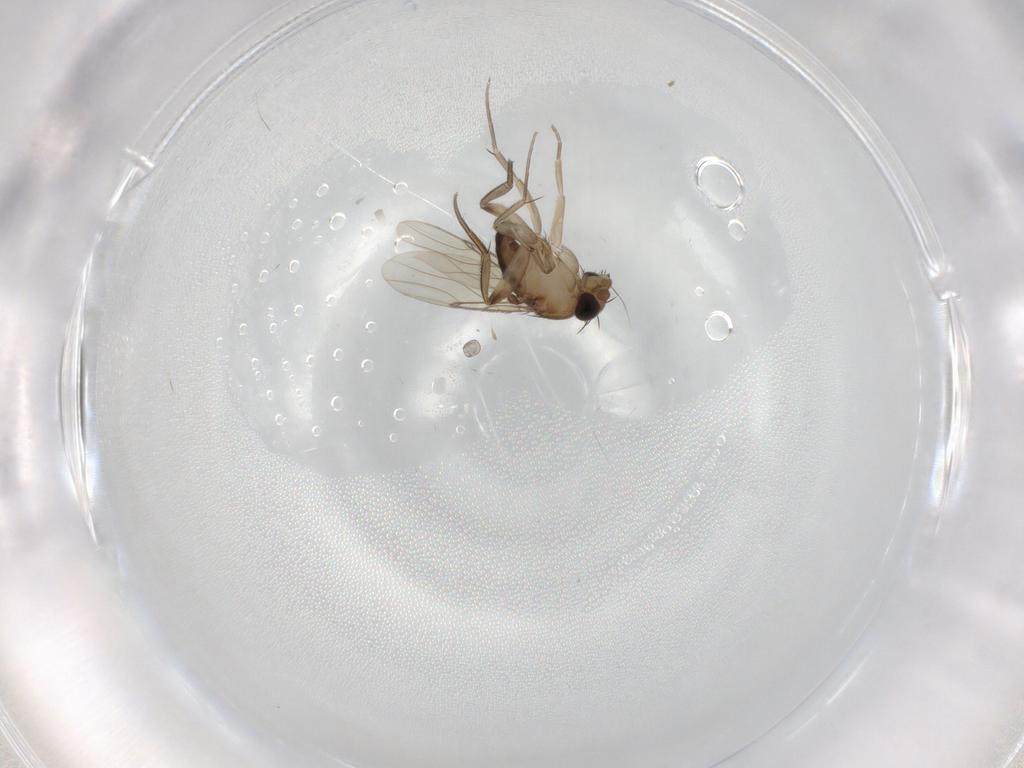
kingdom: Animalia
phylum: Arthropoda
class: Insecta
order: Diptera
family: Phoridae
